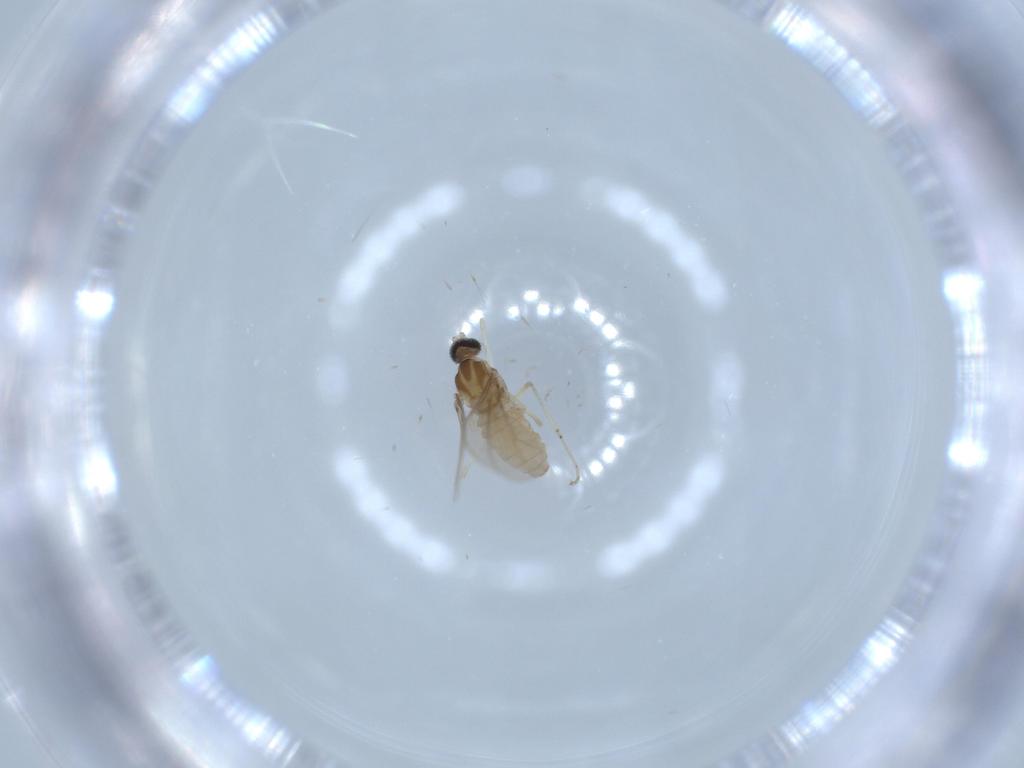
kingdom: Animalia
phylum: Arthropoda
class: Insecta
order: Diptera
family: Cecidomyiidae
